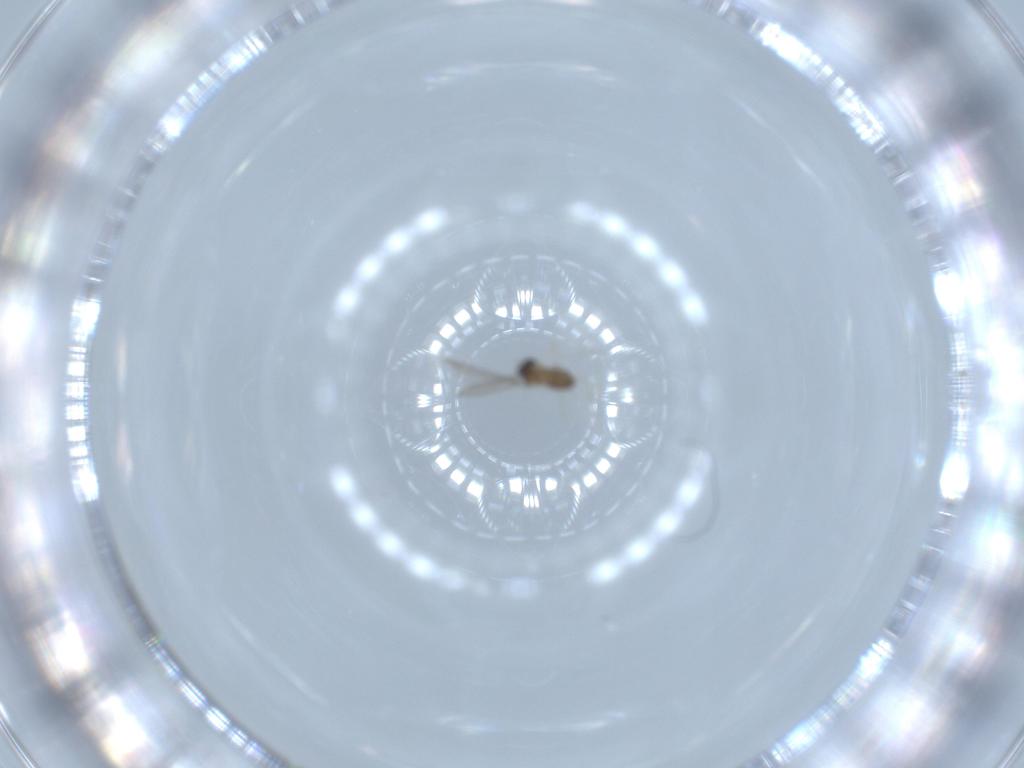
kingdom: Animalia
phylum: Arthropoda
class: Insecta
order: Diptera
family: Cecidomyiidae
